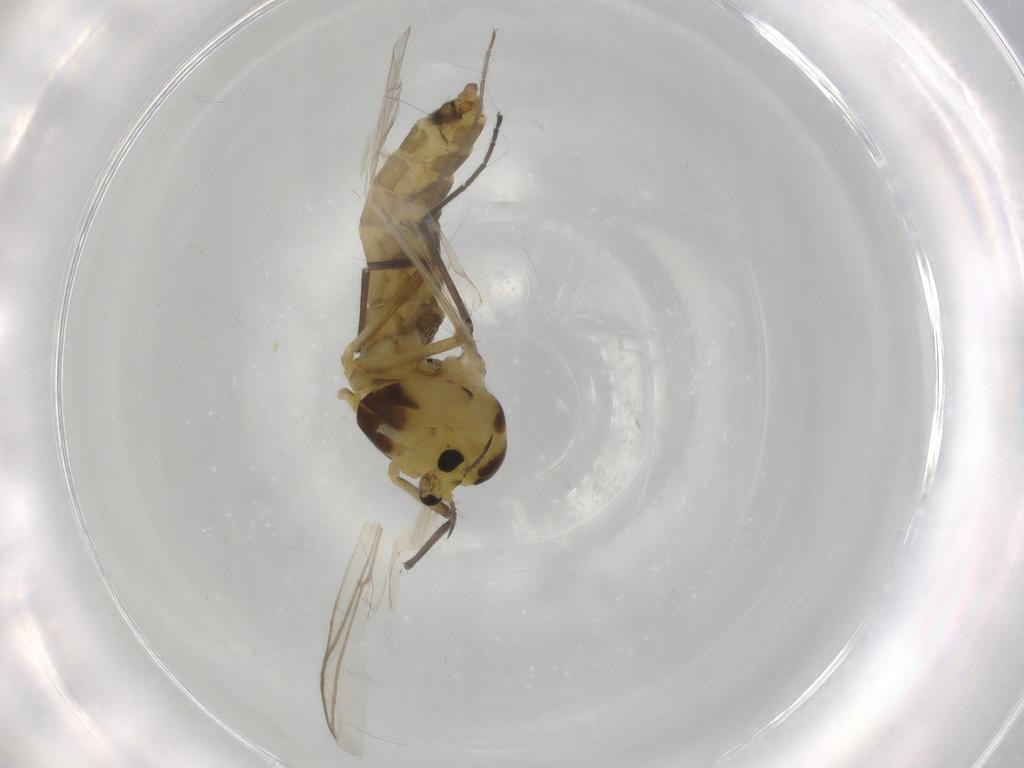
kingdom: Animalia
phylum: Arthropoda
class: Insecta
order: Diptera
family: Chironomidae
